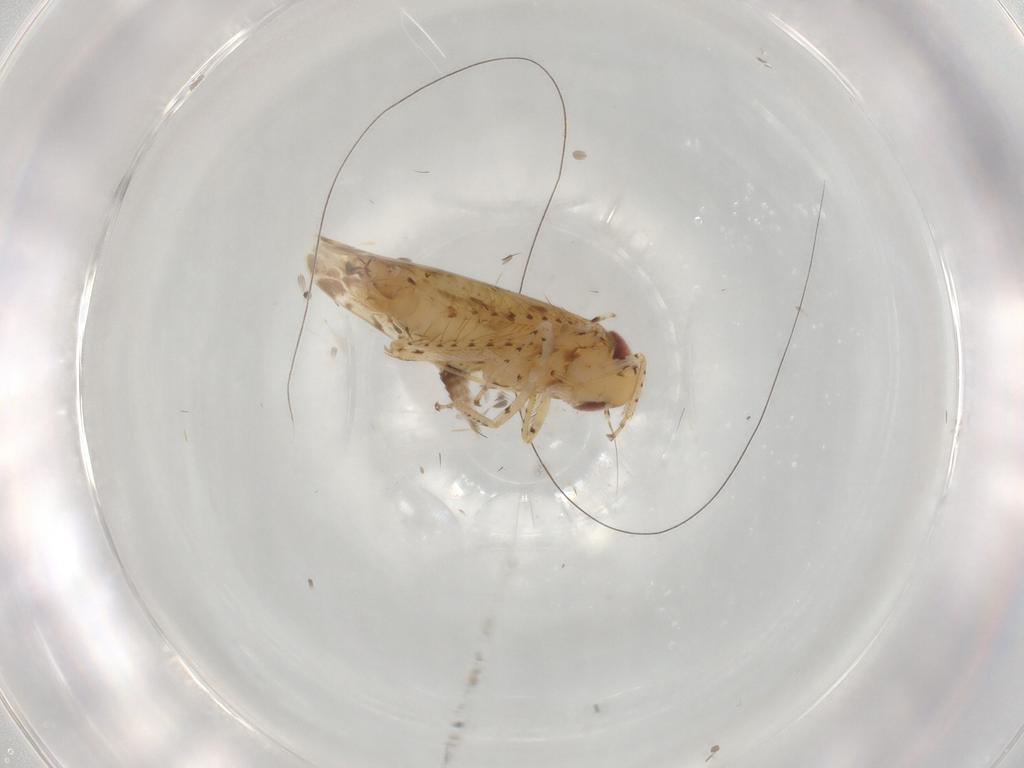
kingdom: Animalia
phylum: Arthropoda
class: Insecta
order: Hemiptera
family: Cicadellidae
